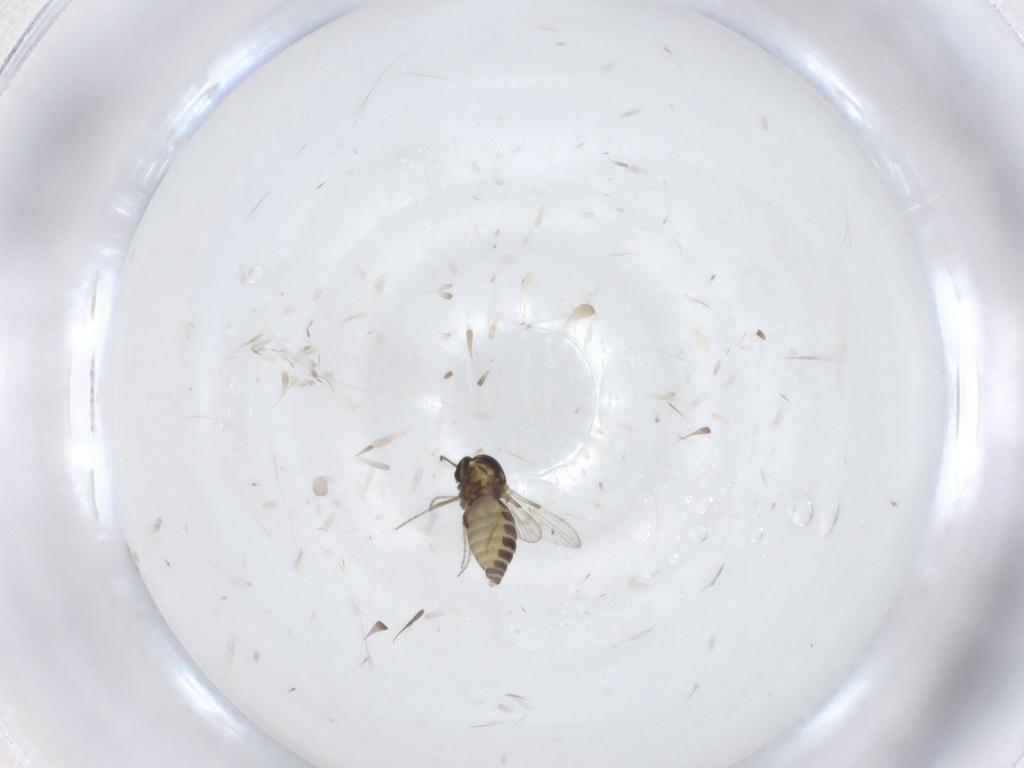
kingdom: Animalia
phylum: Arthropoda
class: Insecta
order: Diptera
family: Ceratopogonidae
